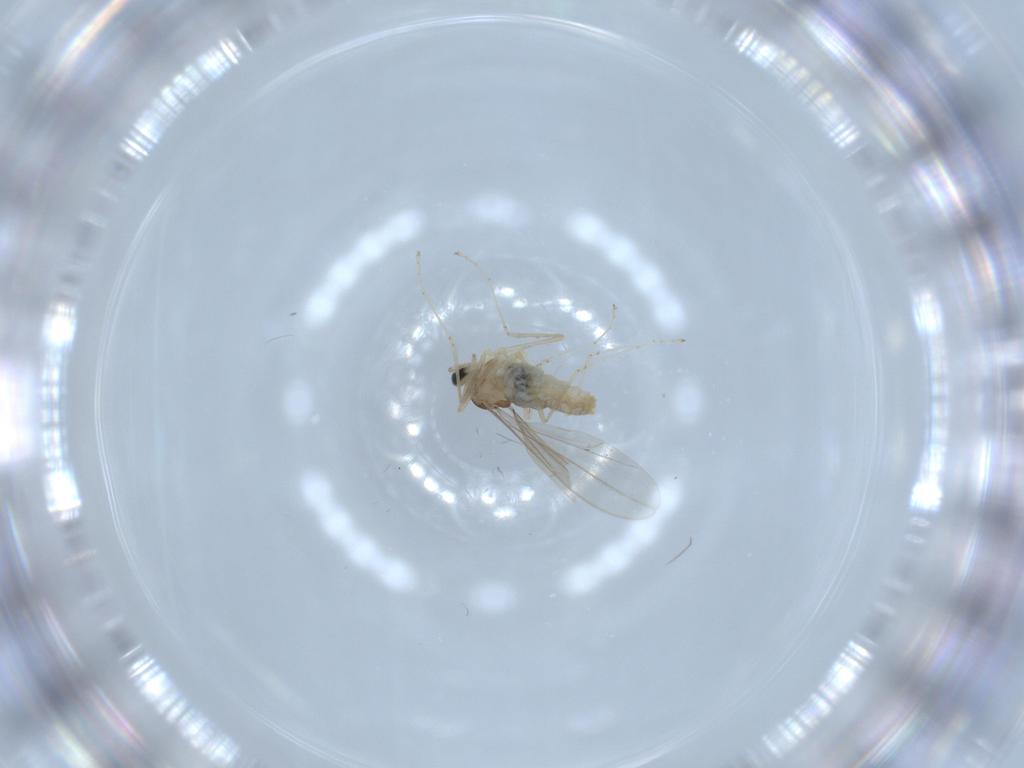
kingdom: Animalia
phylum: Arthropoda
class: Insecta
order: Diptera
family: Cecidomyiidae
